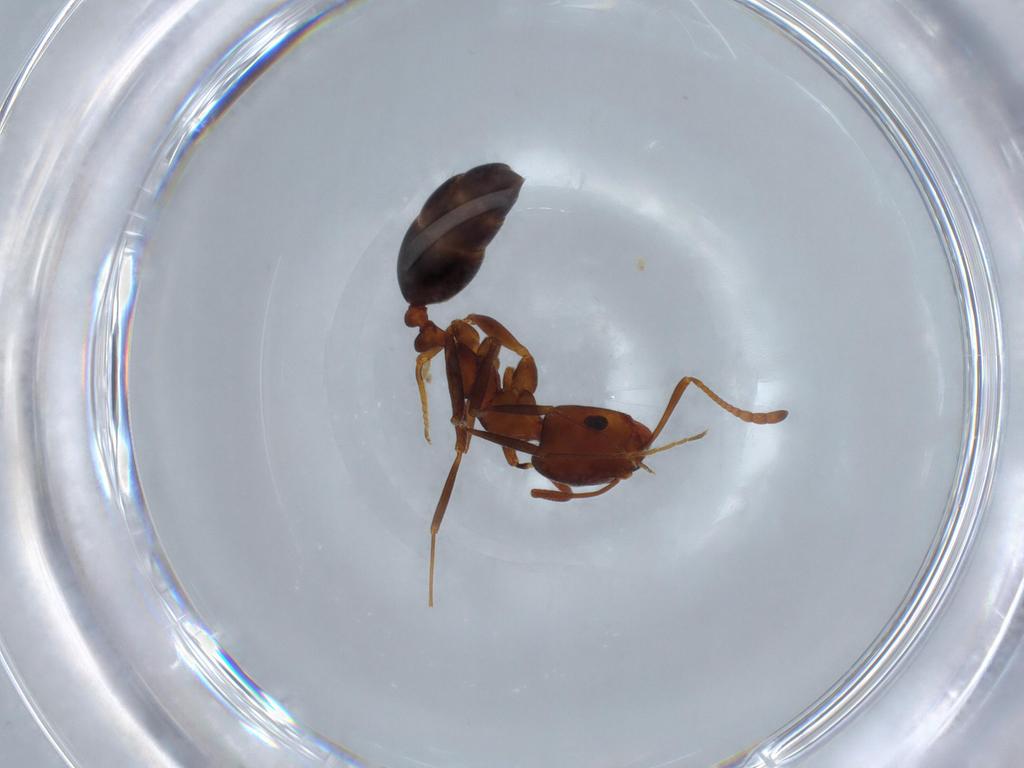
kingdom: Animalia
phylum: Arthropoda
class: Insecta
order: Hymenoptera
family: Formicidae
